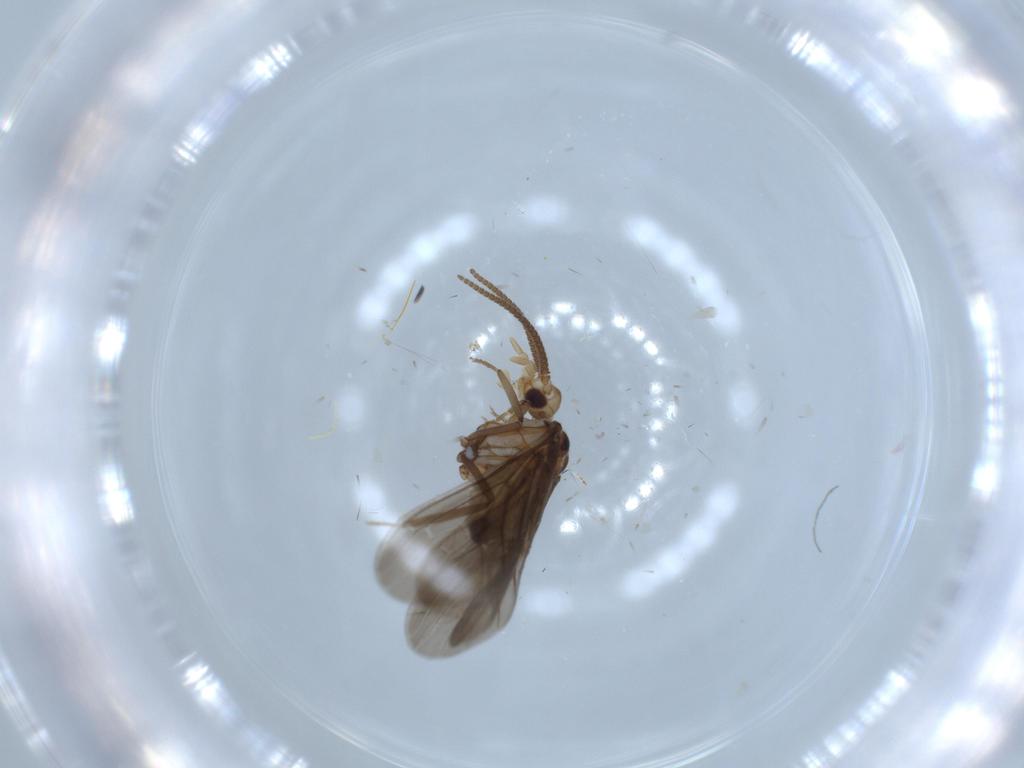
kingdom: Animalia
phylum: Arthropoda
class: Insecta
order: Neuroptera
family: Coniopterygidae
